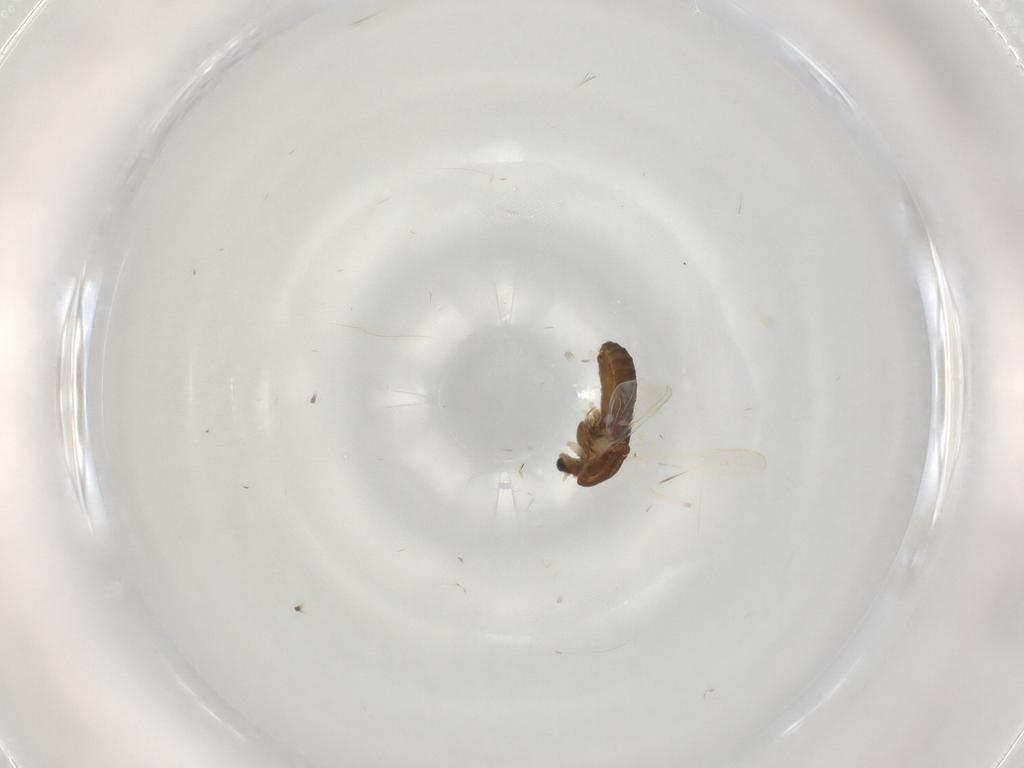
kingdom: Animalia
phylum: Arthropoda
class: Insecta
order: Diptera
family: Chironomidae
